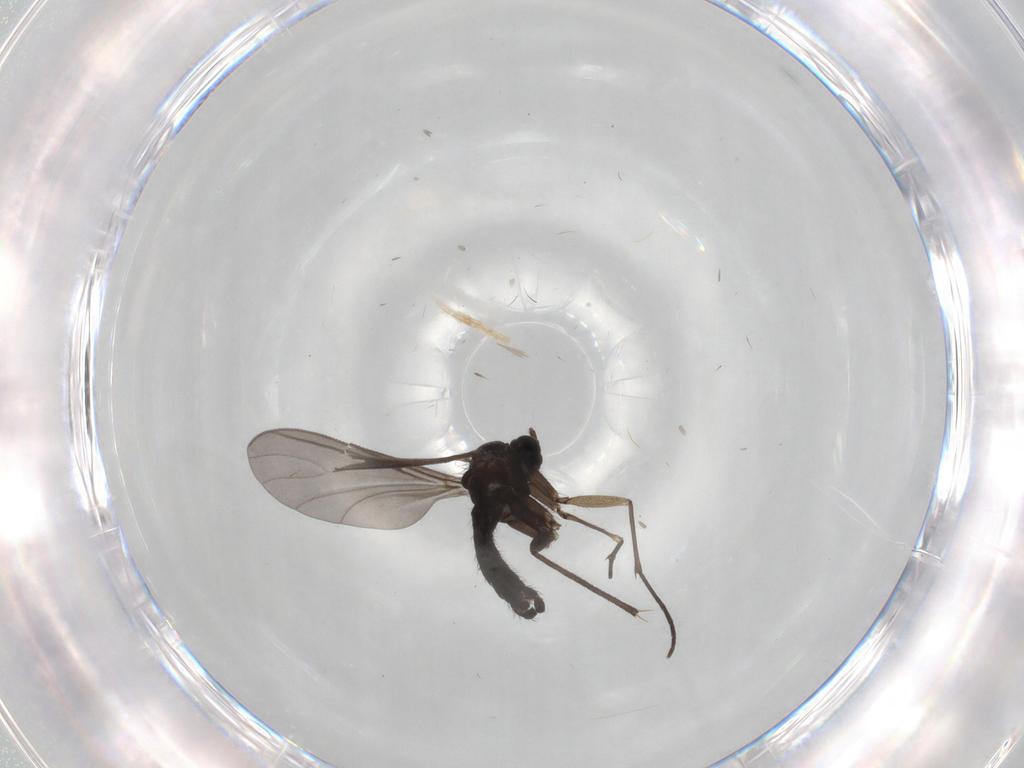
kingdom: Animalia
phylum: Arthropoda
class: Insecta
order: Diptera
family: Sciaridae
